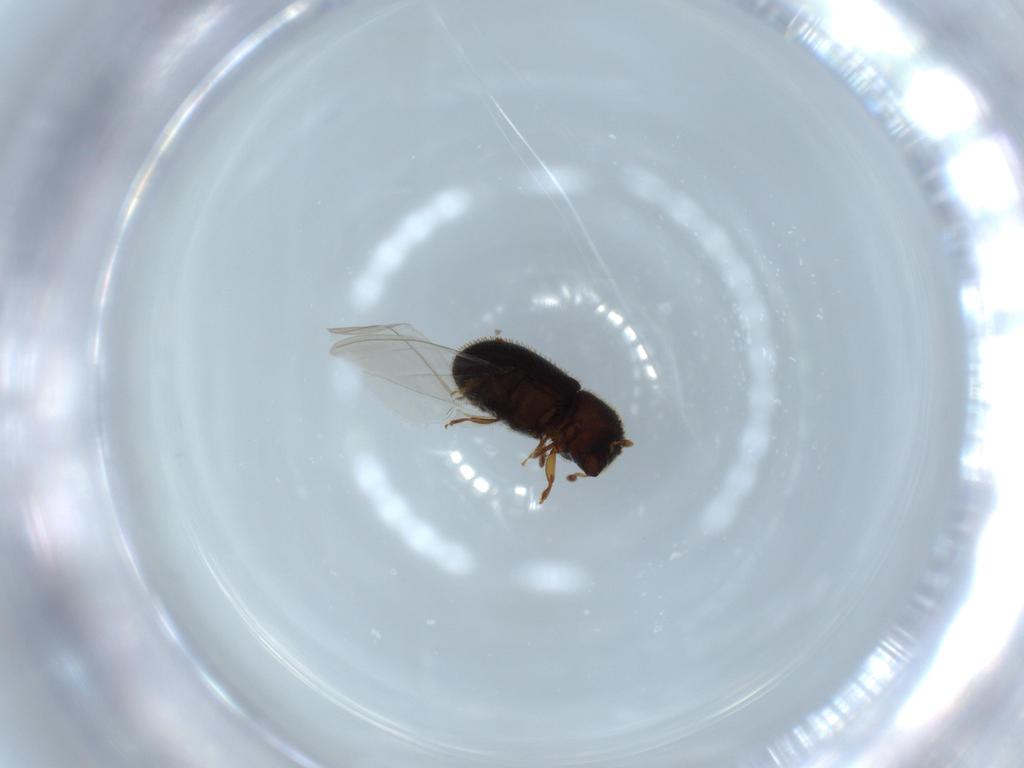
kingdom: Animalia
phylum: Arthropoda
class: Insecta
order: Coleoptera
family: Curculionidae
